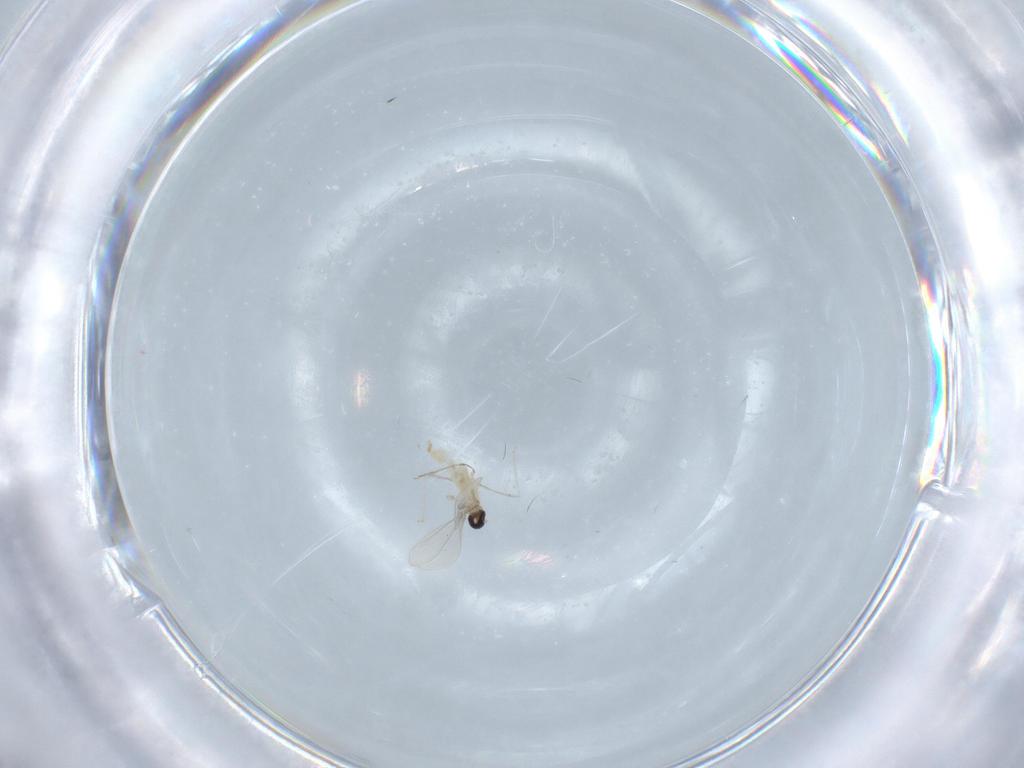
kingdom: Animalia
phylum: Arthropoda
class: Insecta
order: Diptera
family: Cecidomyiidae
